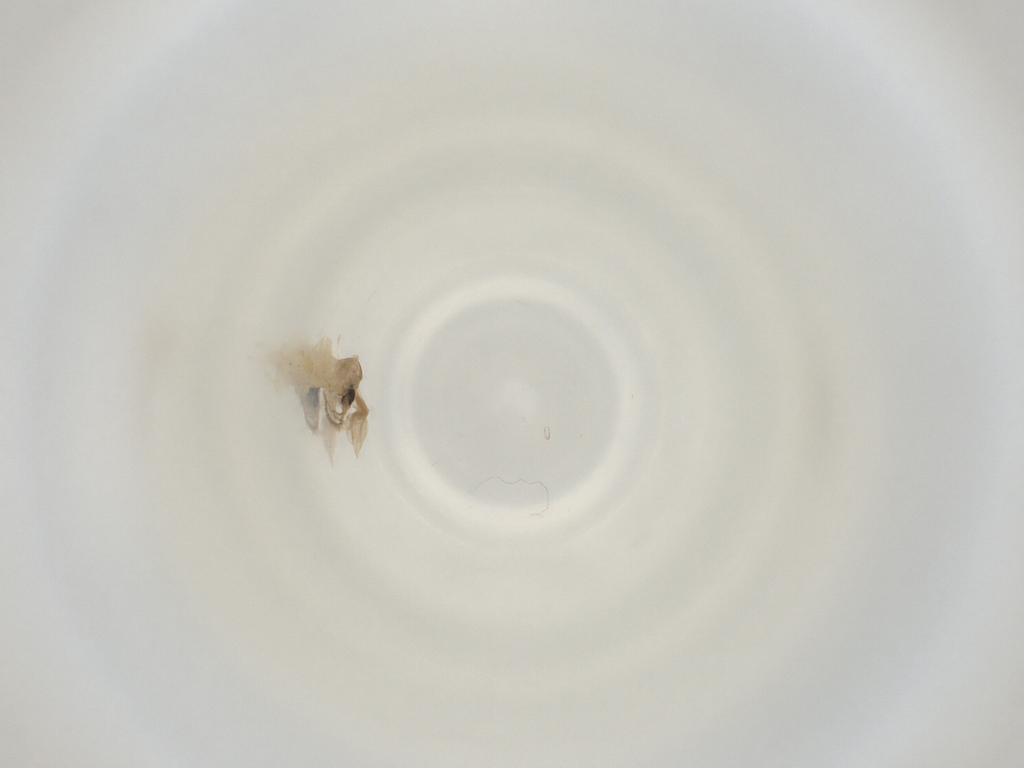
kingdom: Animalia
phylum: Arthropoda
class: Insecta
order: Diptera
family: Cecidomyiidae
